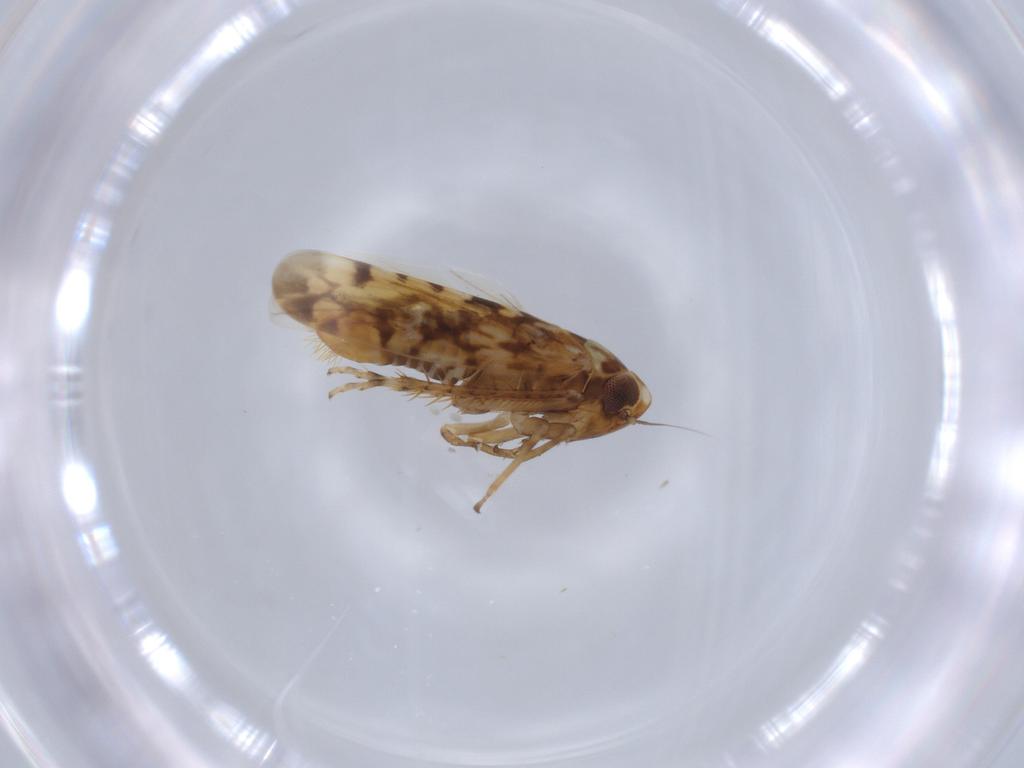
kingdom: Animalia
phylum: Arthropoda
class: Insecta
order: Hemiptera
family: Cicadellidae
